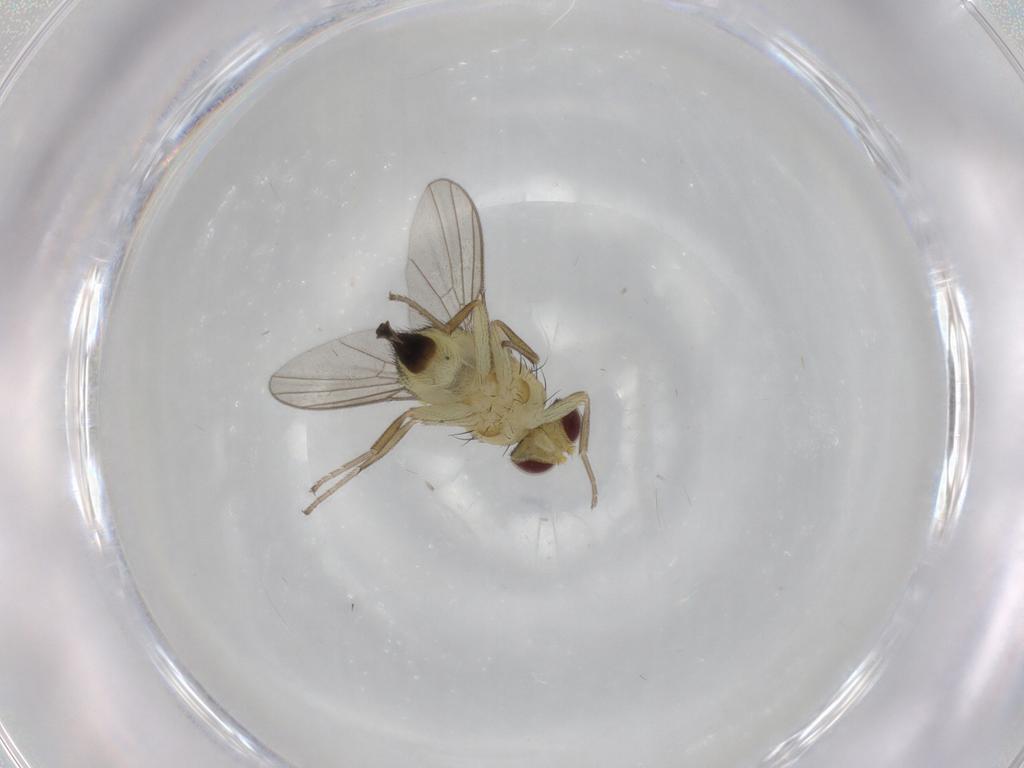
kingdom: Animalia
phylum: Arthropoda
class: Insecta
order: Diptera
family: Agromyzidae
